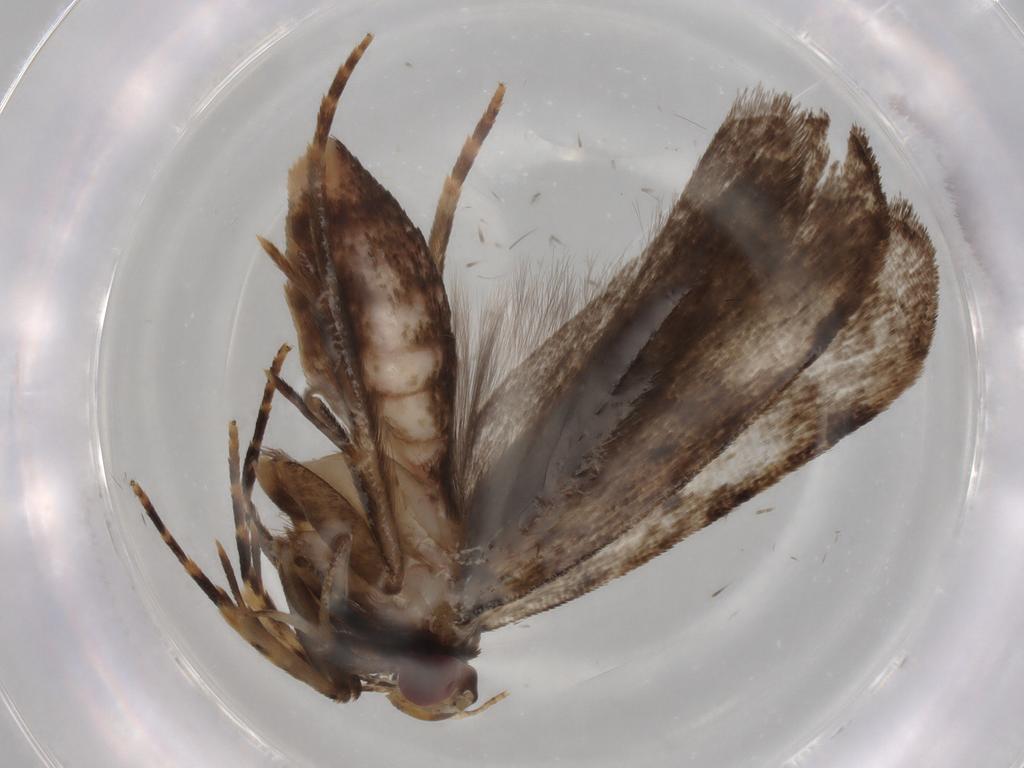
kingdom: Animalia
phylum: Arthropoda
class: Insecta
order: Lepidoptera
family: Gelechiidae
